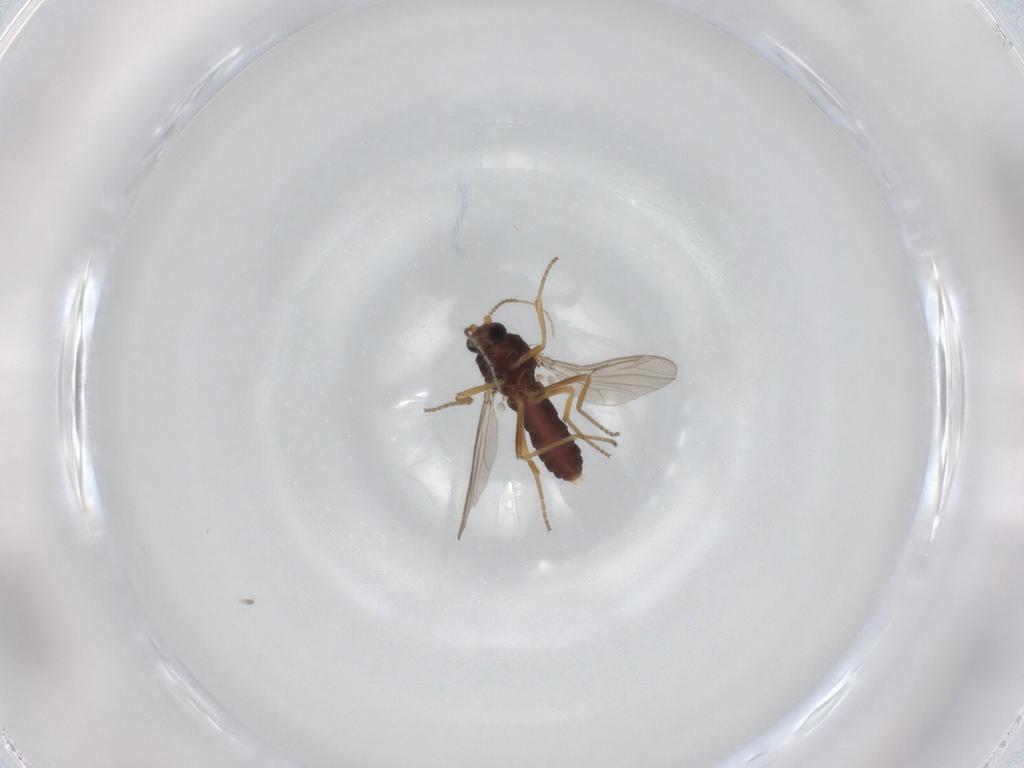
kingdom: Animalia
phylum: Arthropoda
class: Insecta
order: Diptera
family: Ceratopogonidae
